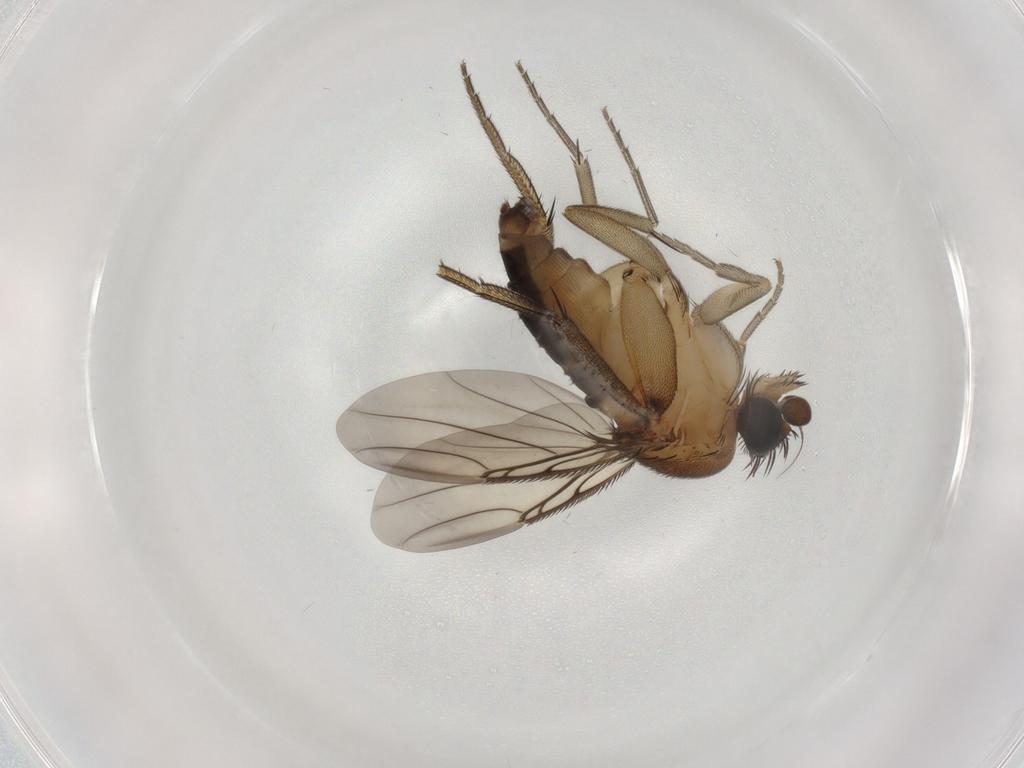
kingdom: Animalia
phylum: Arthropoda
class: Insecta
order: Diptera
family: Phoridae
